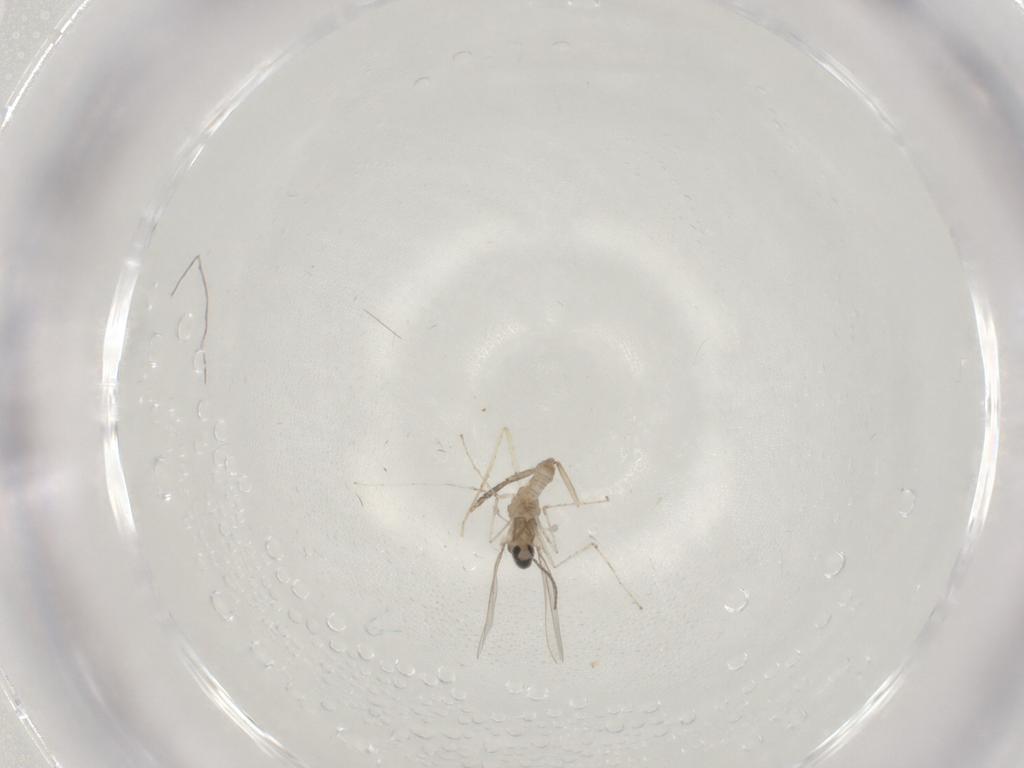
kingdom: Animalia
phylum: Arthropoda
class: Insecta
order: Diptera
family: Cecidomyiidae
